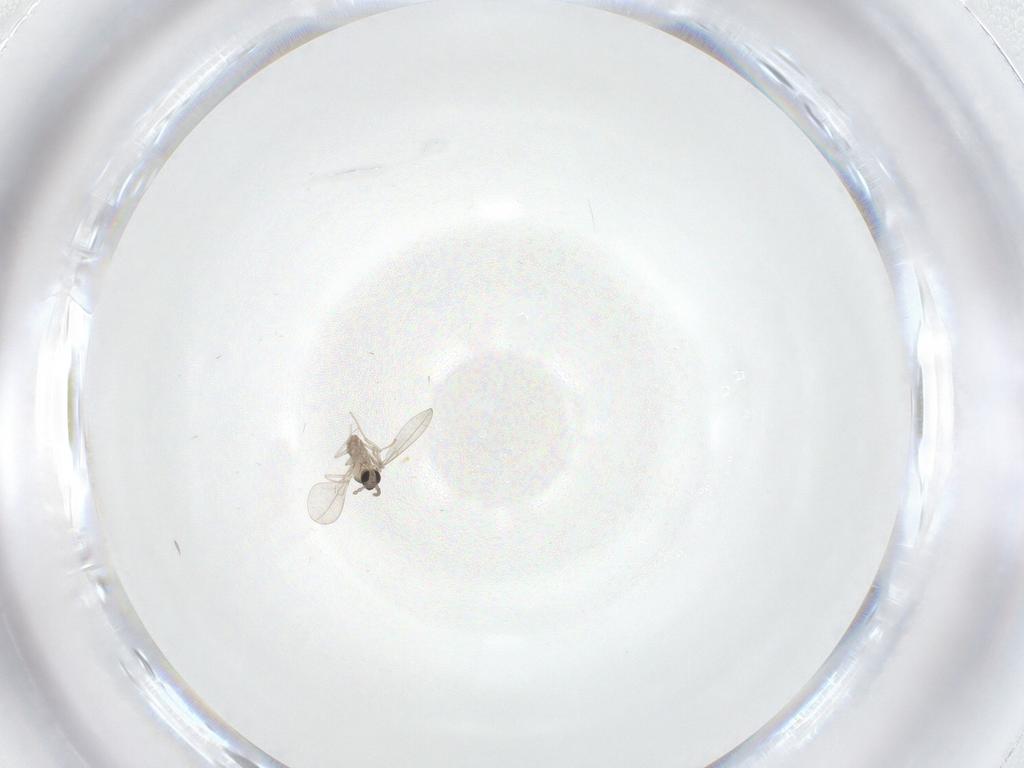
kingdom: Animalia
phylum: Arthropoda
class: Insecta
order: Diptera
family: Cecidomyiidae
